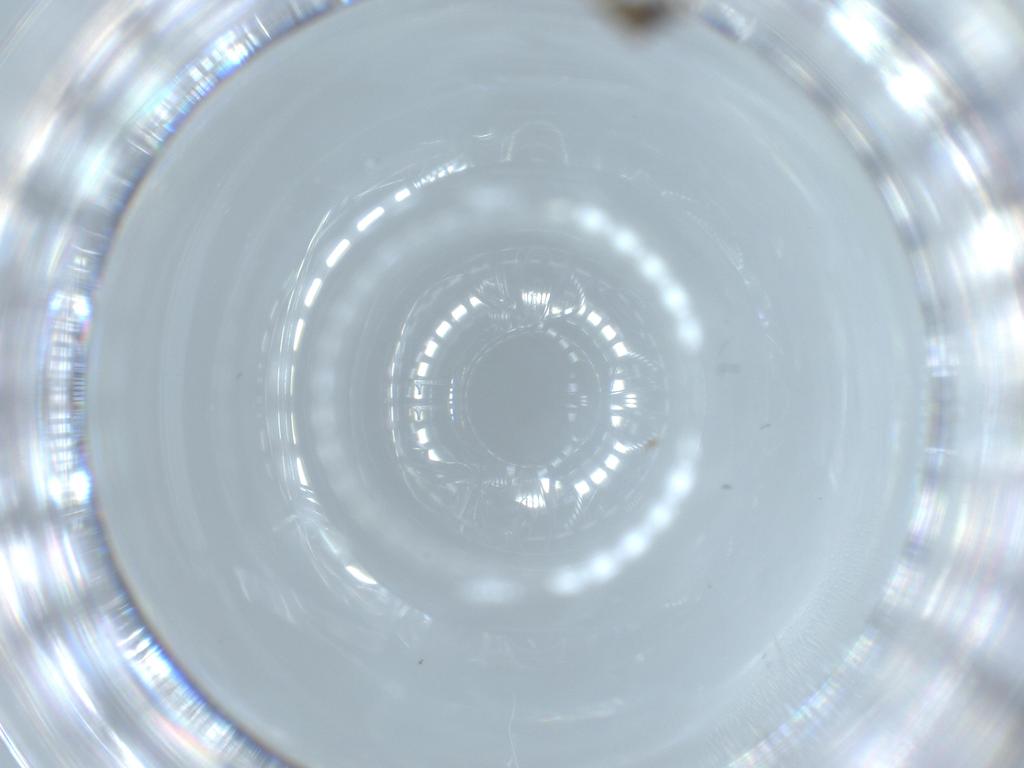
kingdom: Animalia
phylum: Arthropoda
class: Insecta
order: Diptera
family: Phoridae
